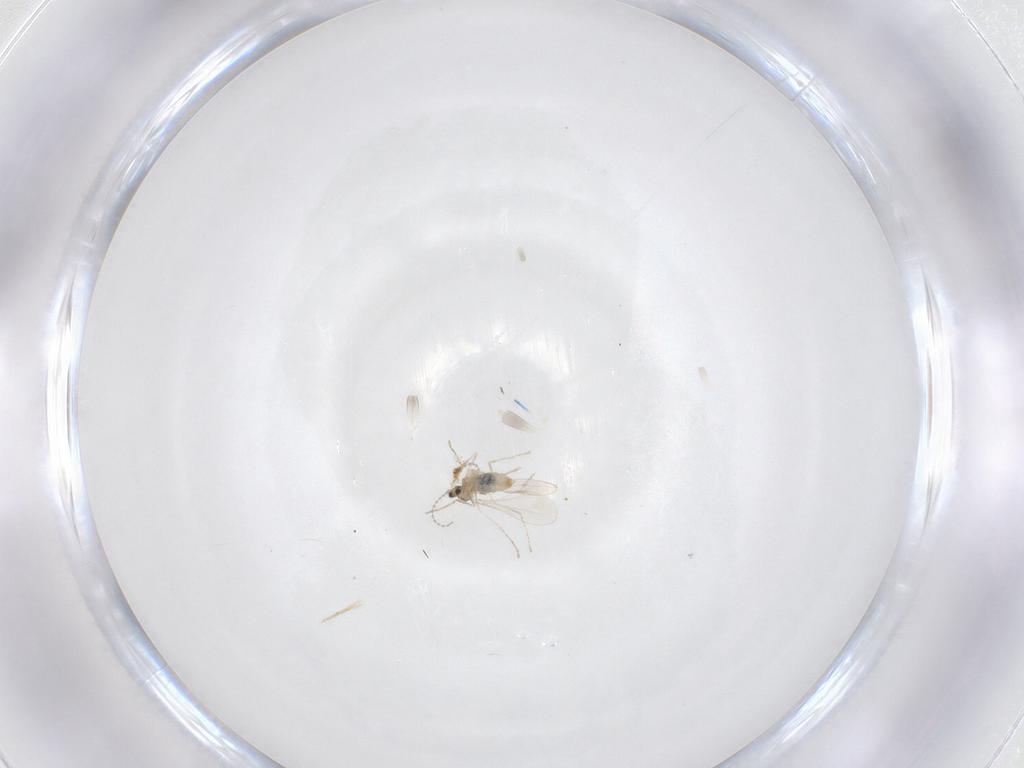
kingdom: Animalia
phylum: Arthropoda
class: Insecta
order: Diptera
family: Cecidomyiidae
